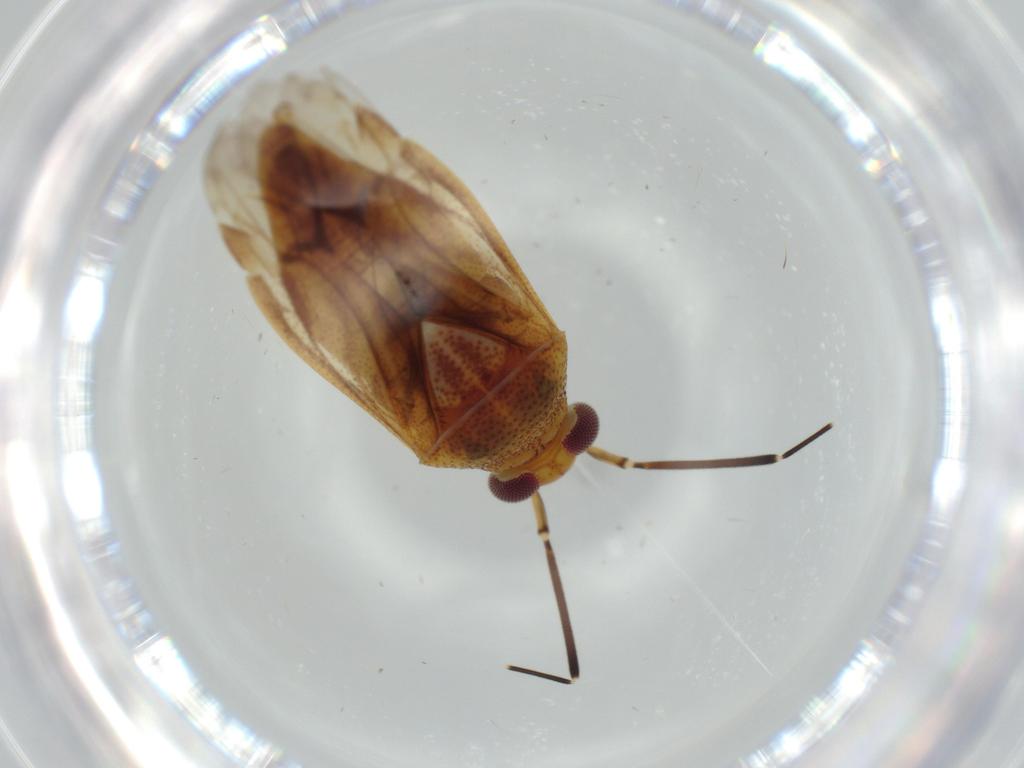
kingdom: Animalia
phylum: Arthropoda
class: Insecta
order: Hemiptera
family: Miridae
